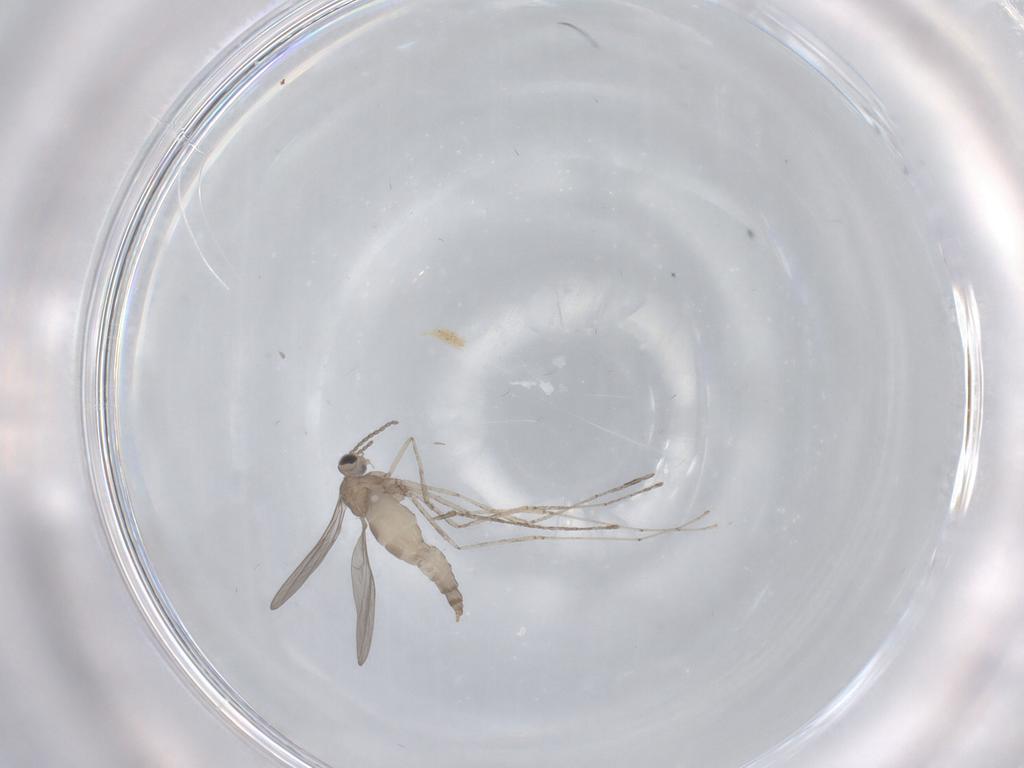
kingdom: Animalia
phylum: Arthropoda
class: Insecta
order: Diptera
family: Cecidomyiidae
